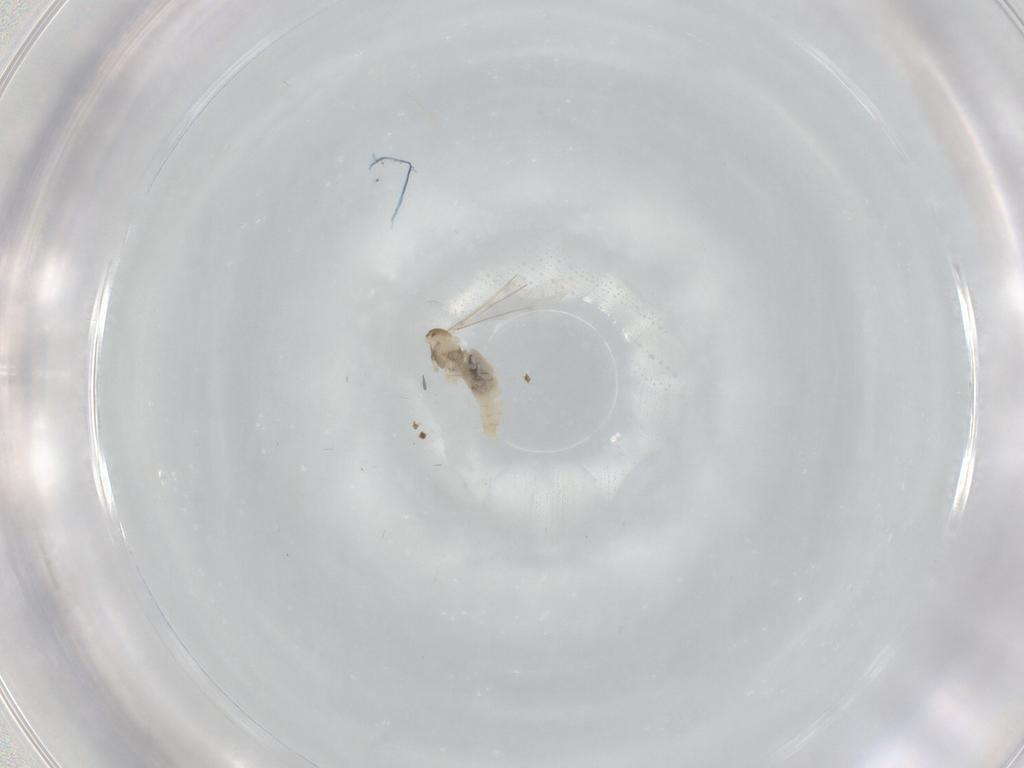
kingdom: Animalia
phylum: Arthropoda
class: Insecta
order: Diptera
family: Cecidomyiidae
